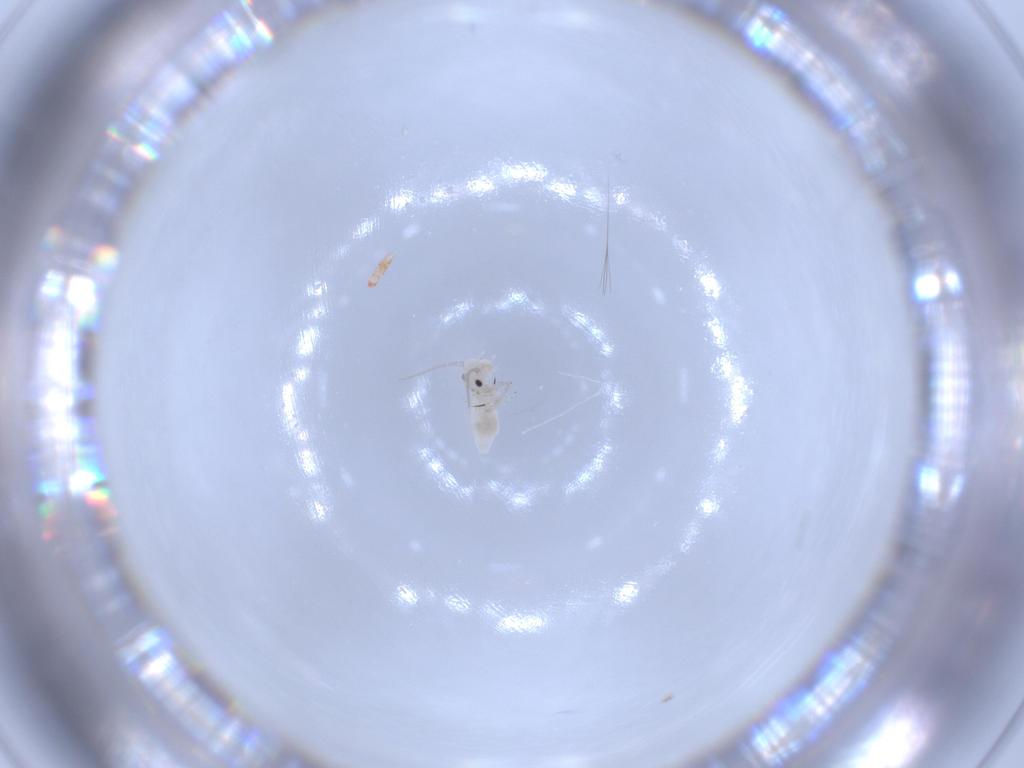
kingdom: Animalia
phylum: Arthropoda
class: Insecta
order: Psocodea
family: Caeciliusidae
